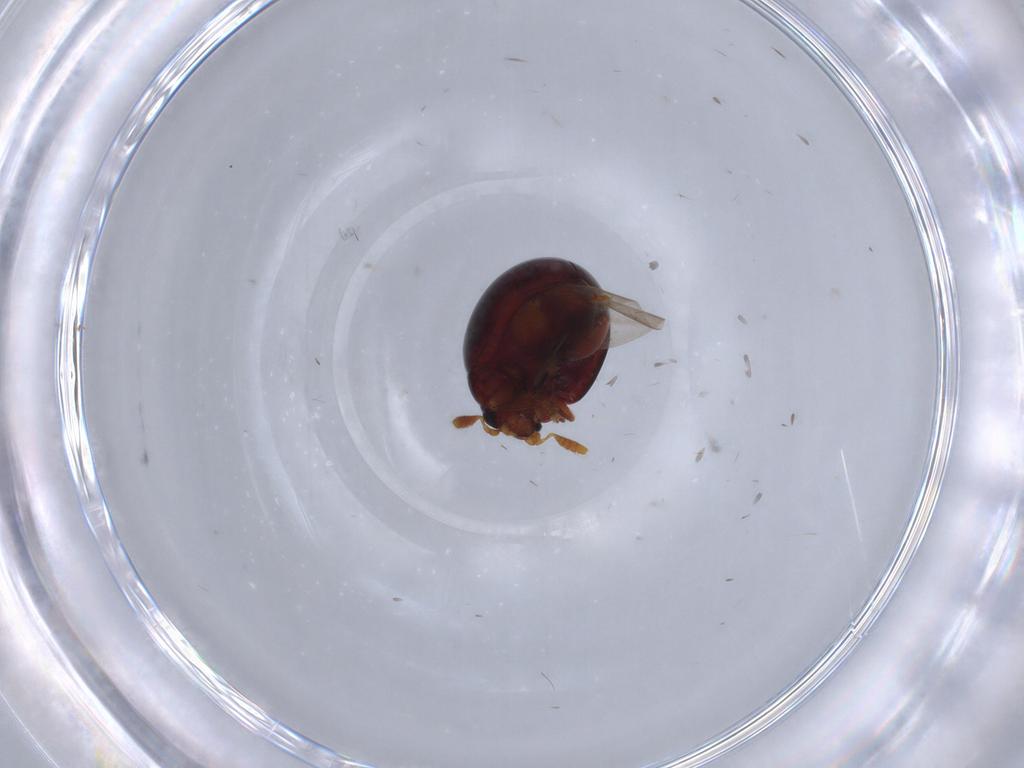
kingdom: Animalia
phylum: Arthropoda
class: Insecta
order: Coleoptera
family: Chrysomelidae
